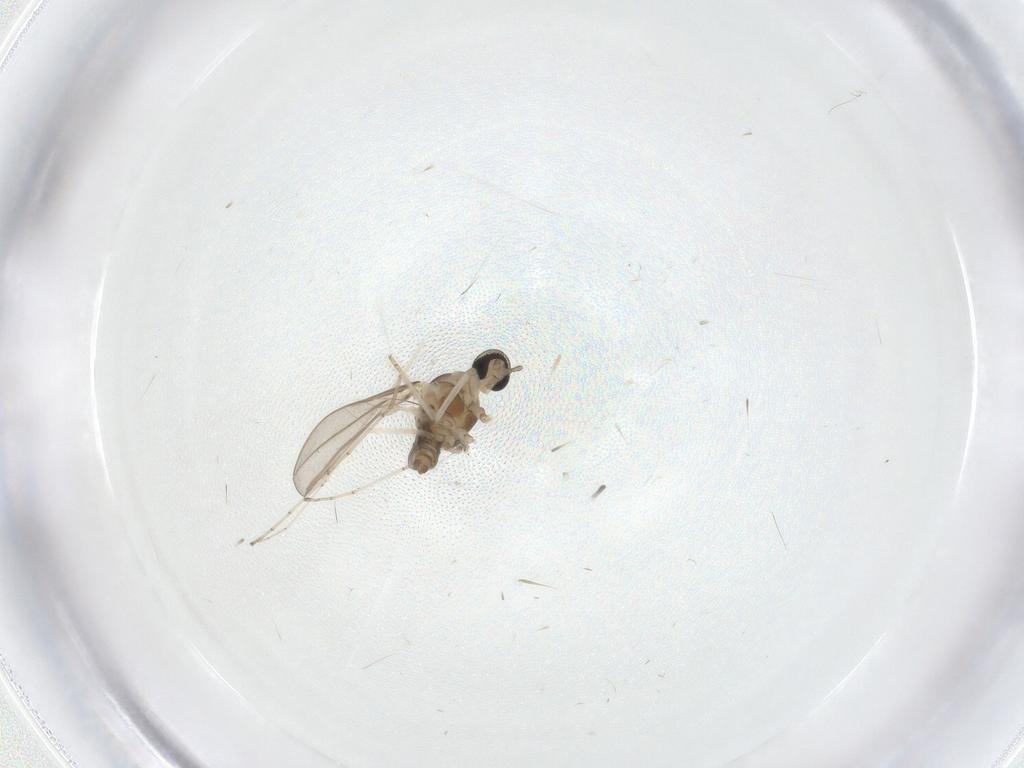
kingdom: Animalia
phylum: Arthropoda
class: Insecta
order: Diptera
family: Cecidomyiidae
